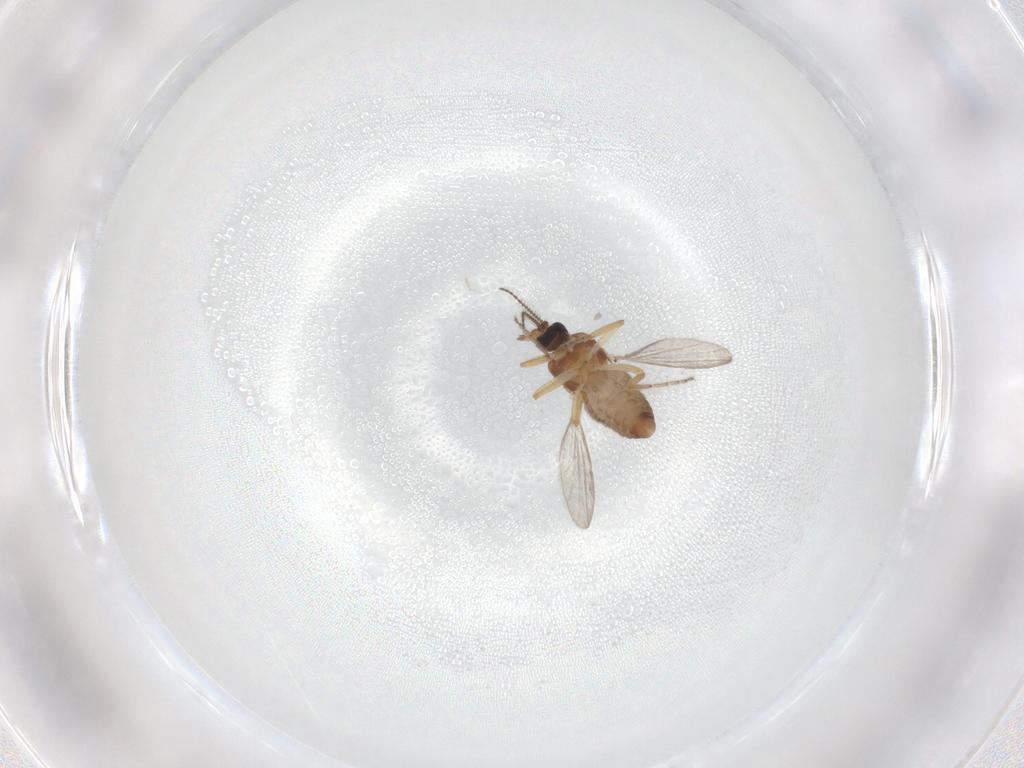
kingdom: Animalia
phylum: Arthropoda
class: Insecta
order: Diptera
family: Ceratopogonidae
